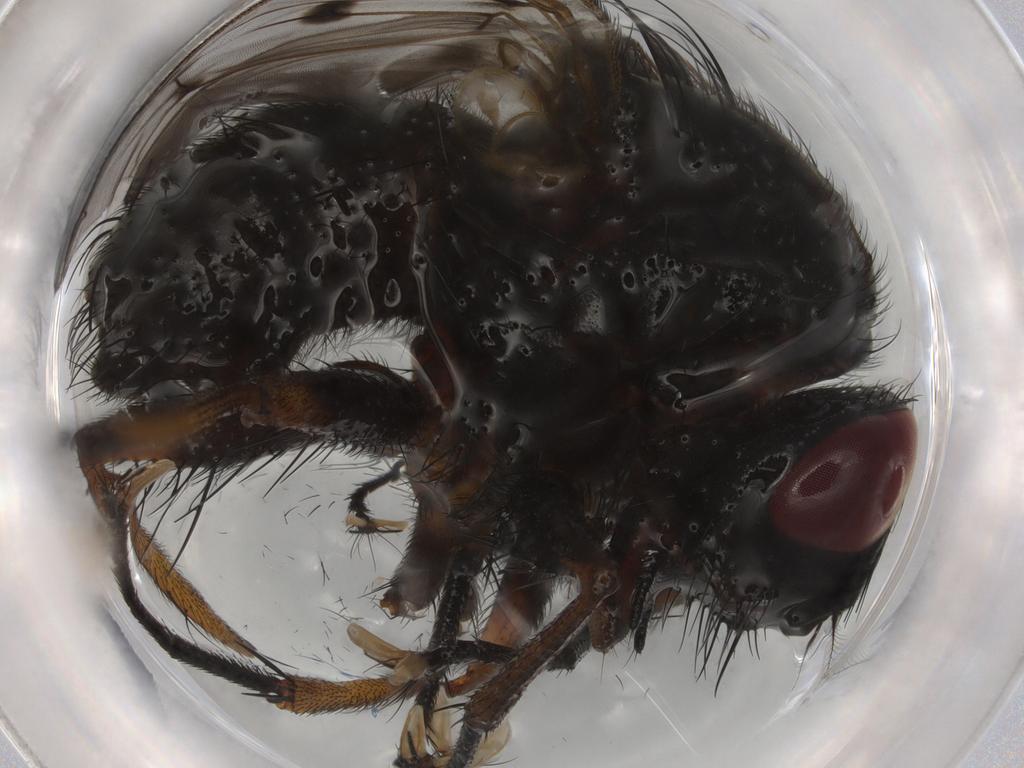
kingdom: Animalia
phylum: Arthropoda
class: Insecta
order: Diptera
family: Muscidae
